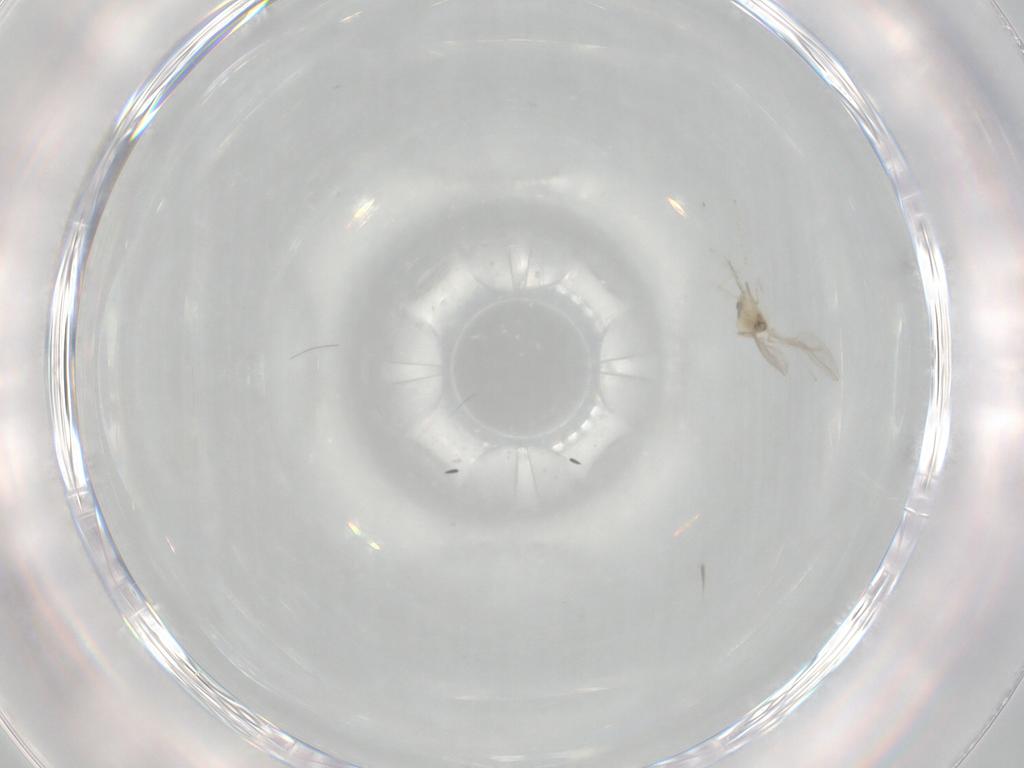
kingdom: Animalia
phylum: Arthropoda
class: Insecta
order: Diptera
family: Cecidomyiidae
